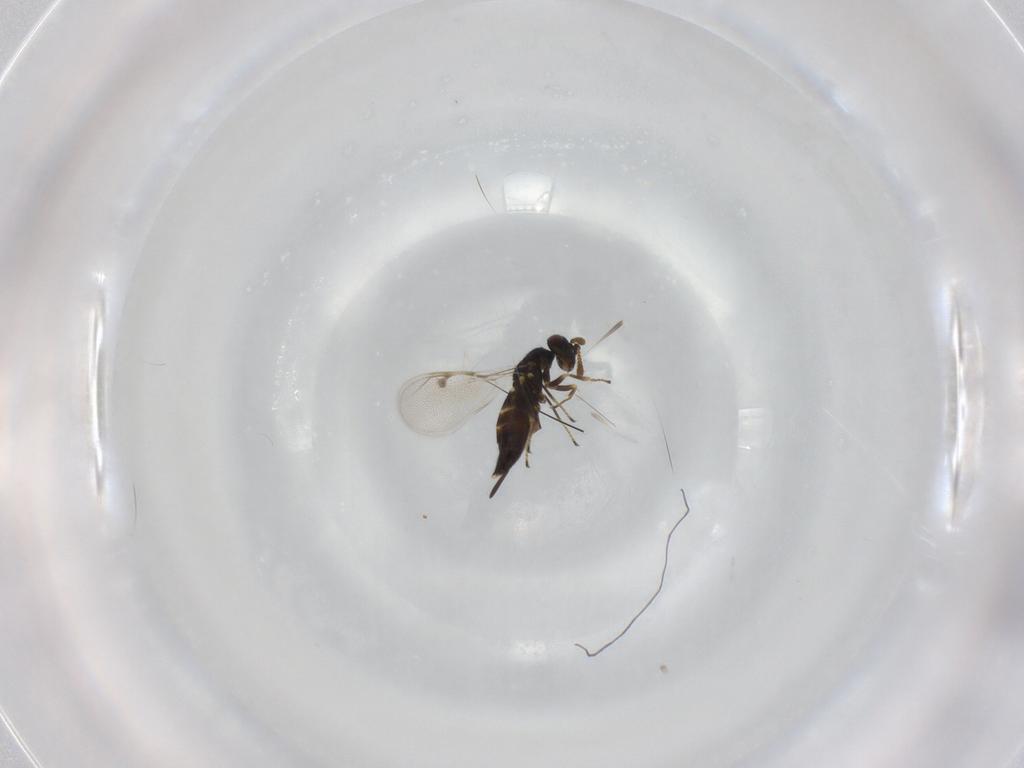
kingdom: Animalia
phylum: Arthropoda
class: Insecta
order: Hymenoptera
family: Pirenidae
